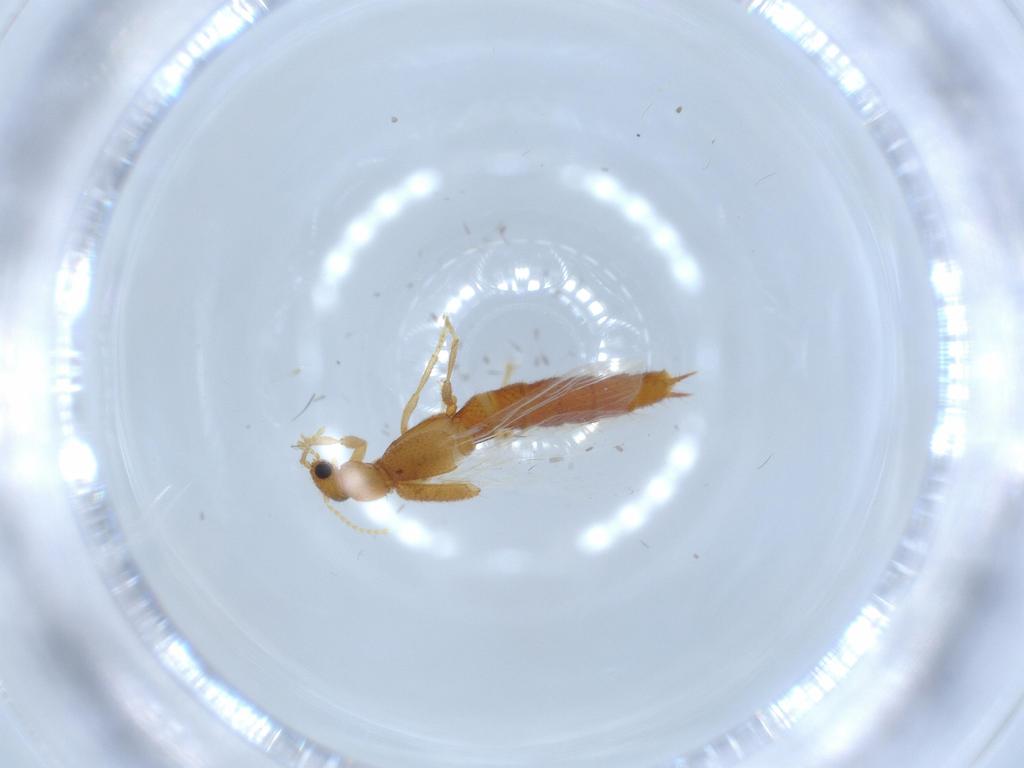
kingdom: Animalia
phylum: Arthropoda
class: Insecta
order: Coleoptera
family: Staphylinidae
